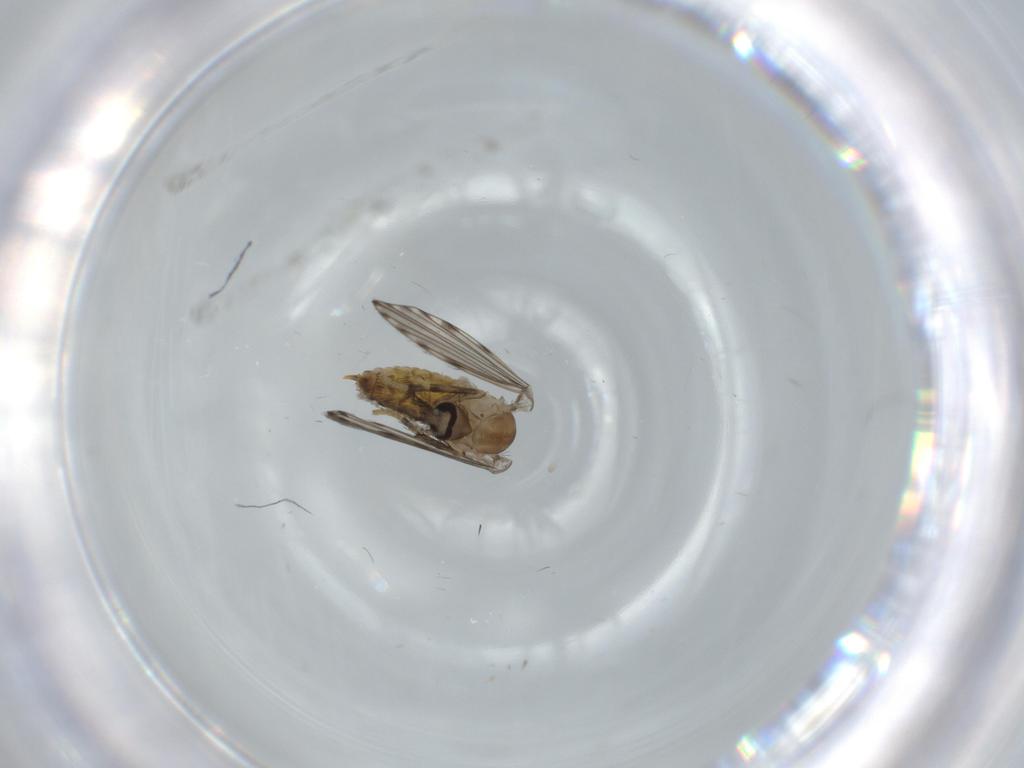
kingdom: Animalia
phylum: Arthropoda
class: Insecta
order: Diptera
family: Psychodidae
